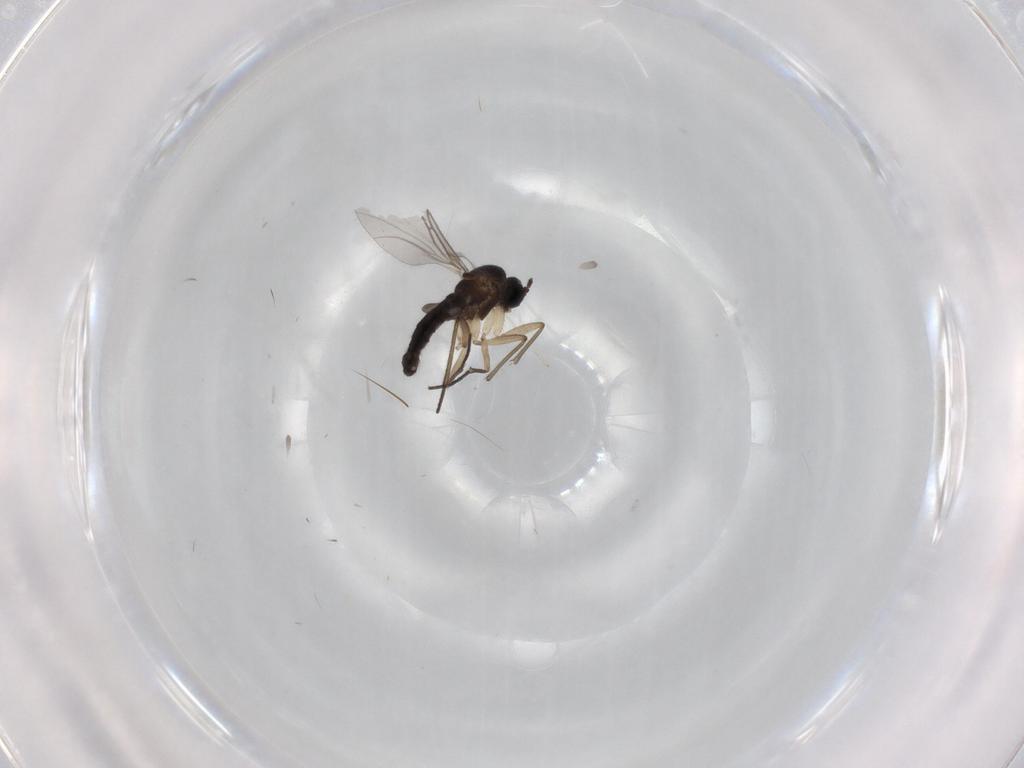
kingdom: Animalia
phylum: Arthropoda
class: Insecta
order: Diptera
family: Sciaridae
